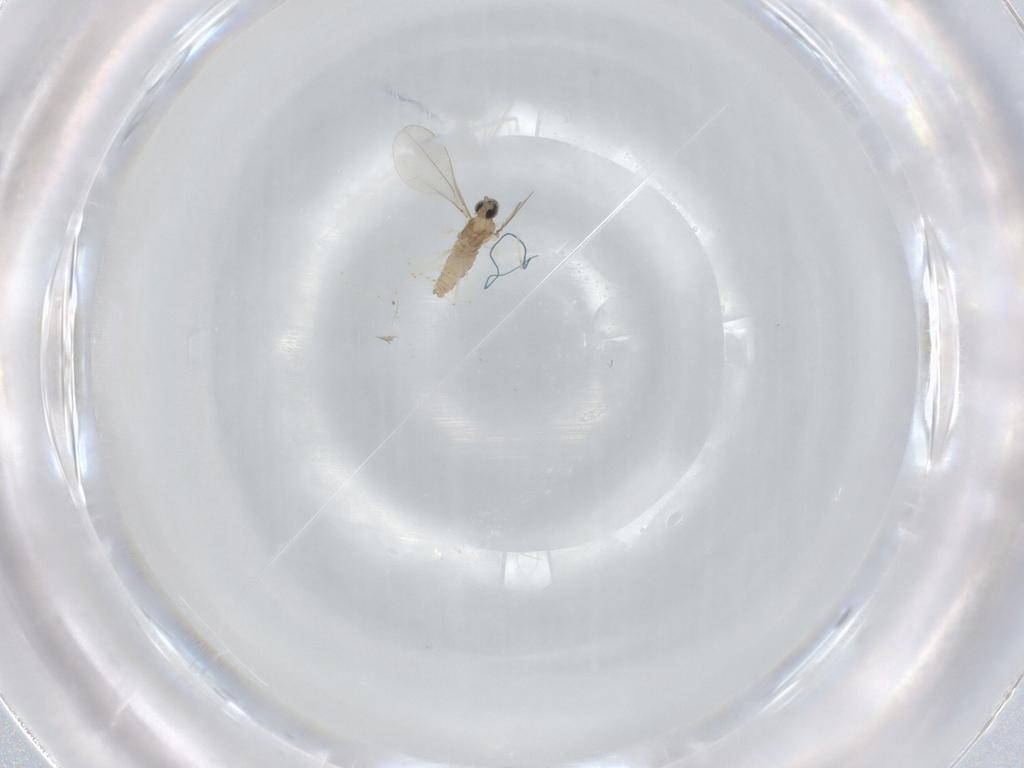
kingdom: Animalia
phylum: Arthropoda
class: Insecta
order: Diptera
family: Cecidomyiidae
